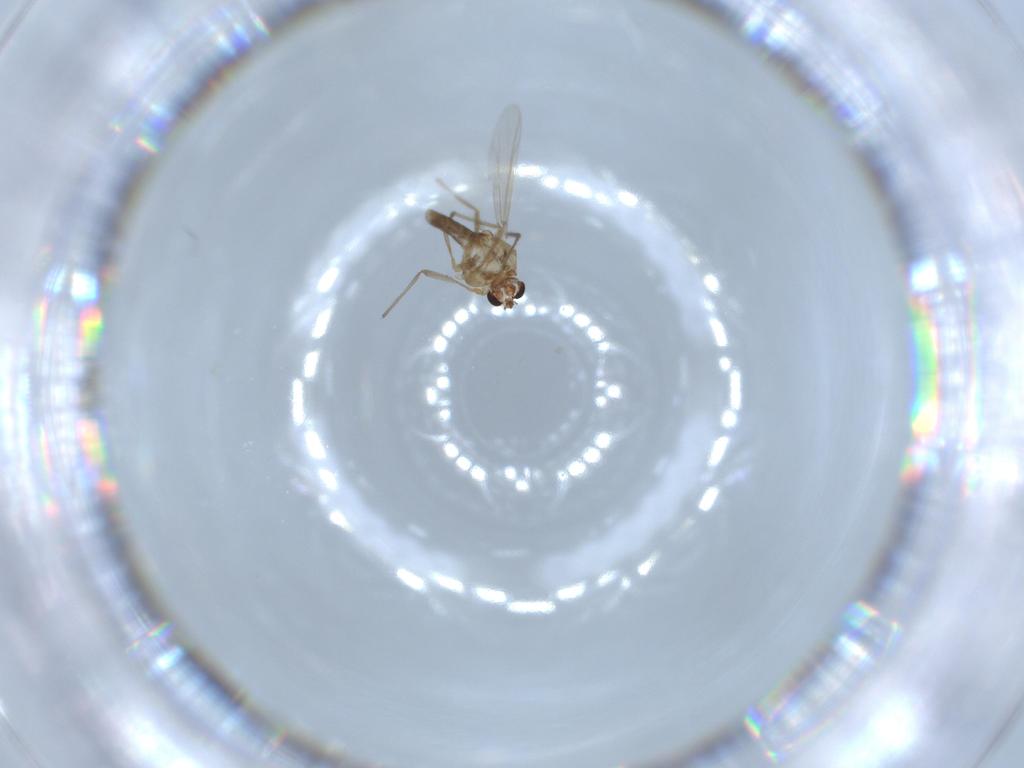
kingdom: Animalia
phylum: Arthropoda
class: Insecta
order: Diptera
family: Chironomidae
